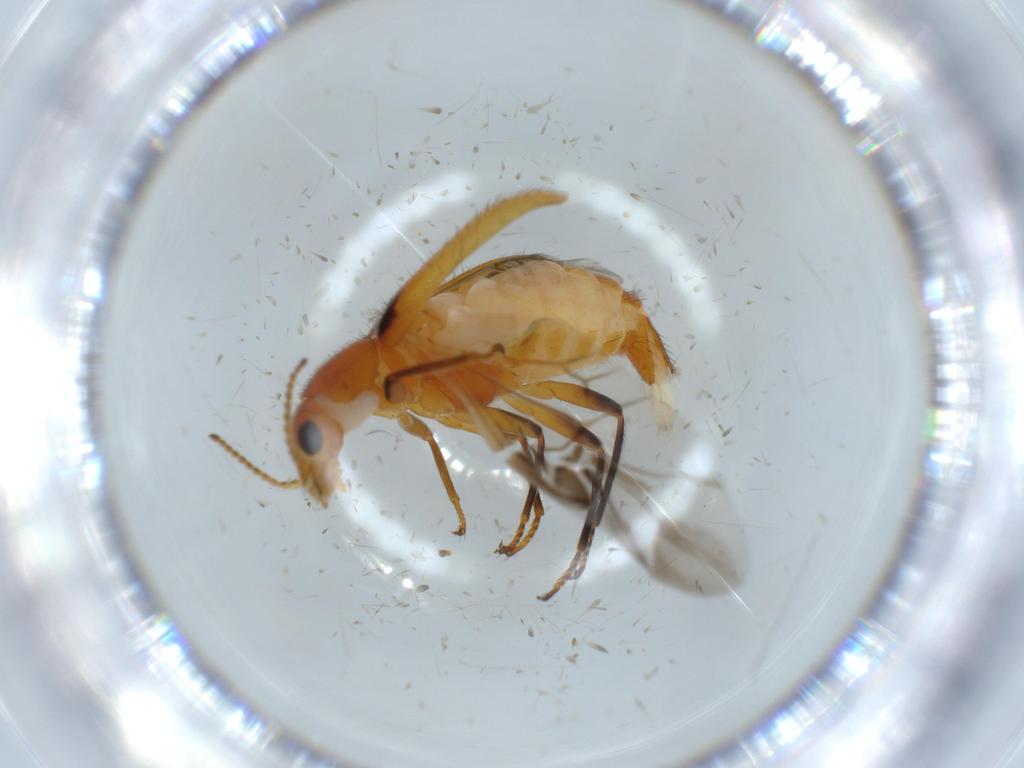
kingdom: Animalia
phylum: Arthropoda
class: Insecta
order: Coleoptera
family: Melyridae
